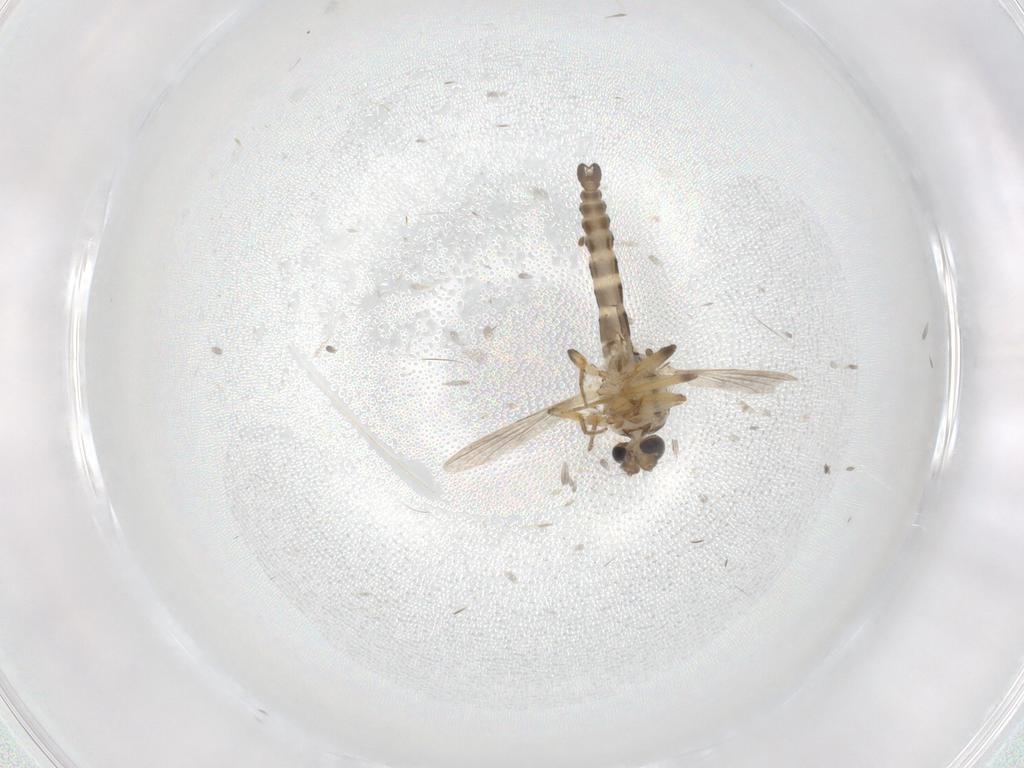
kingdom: Animalia
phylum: Arthropoda
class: Insecta
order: Diptera
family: Ceratopogonidae
